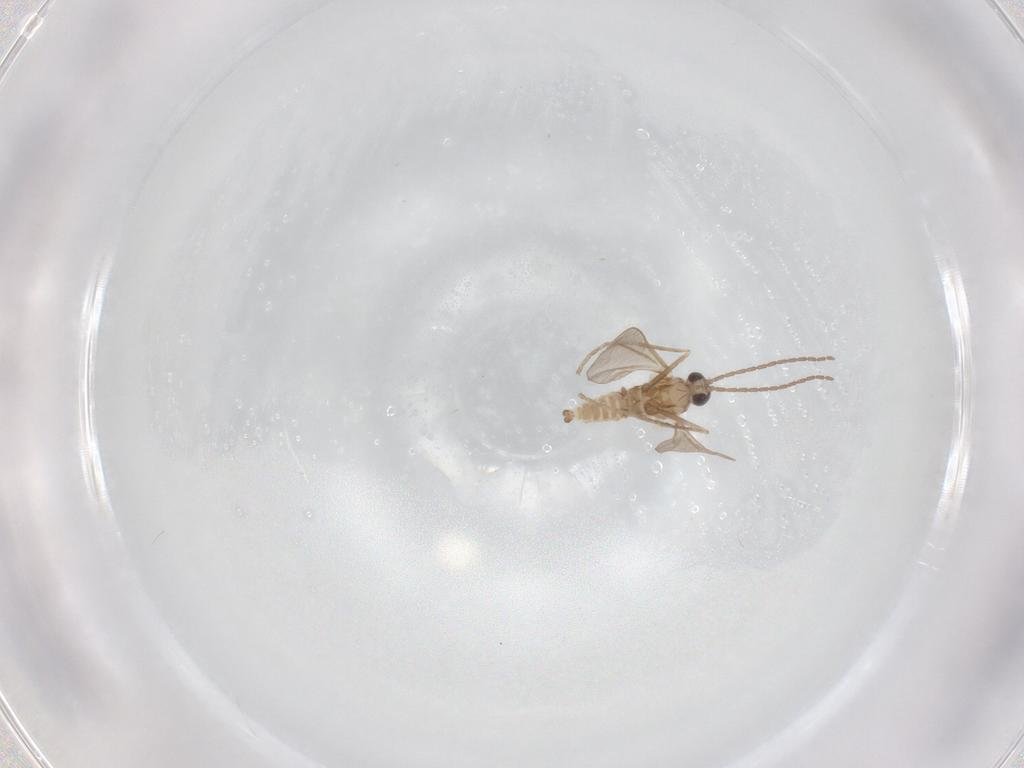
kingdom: Animalia
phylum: Arthropoda
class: Insecta
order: Diptera
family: Cecidomyiidae
